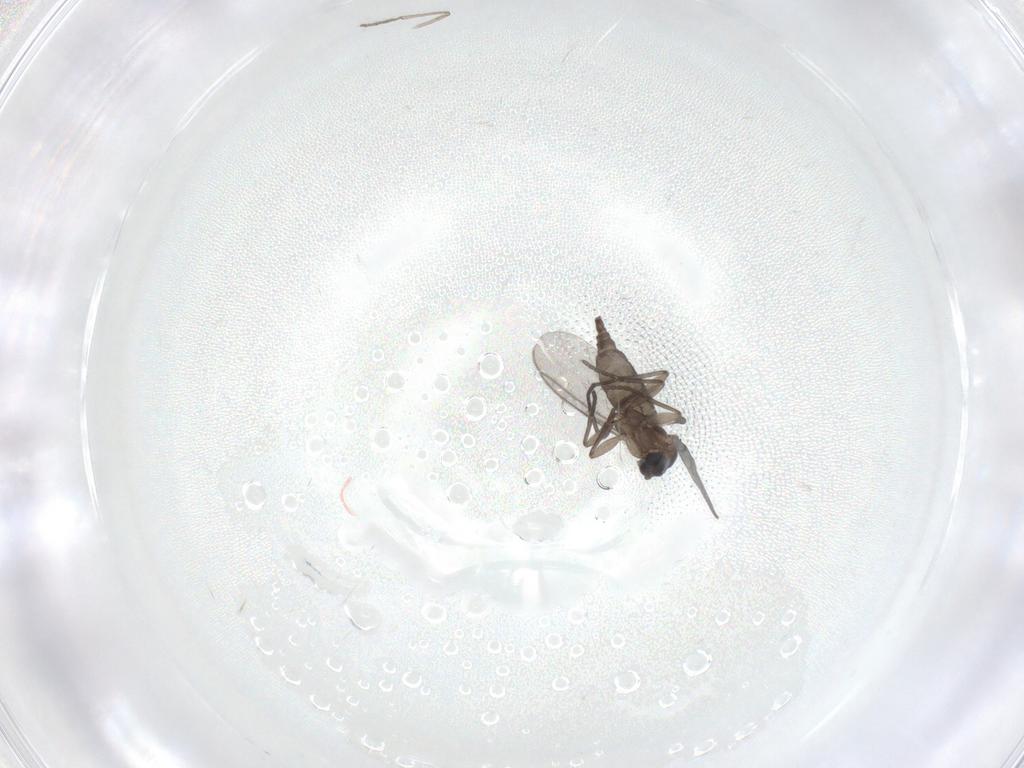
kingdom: Animalia
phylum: Arthropoda
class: Insecta
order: Diptera
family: Psychodidae
